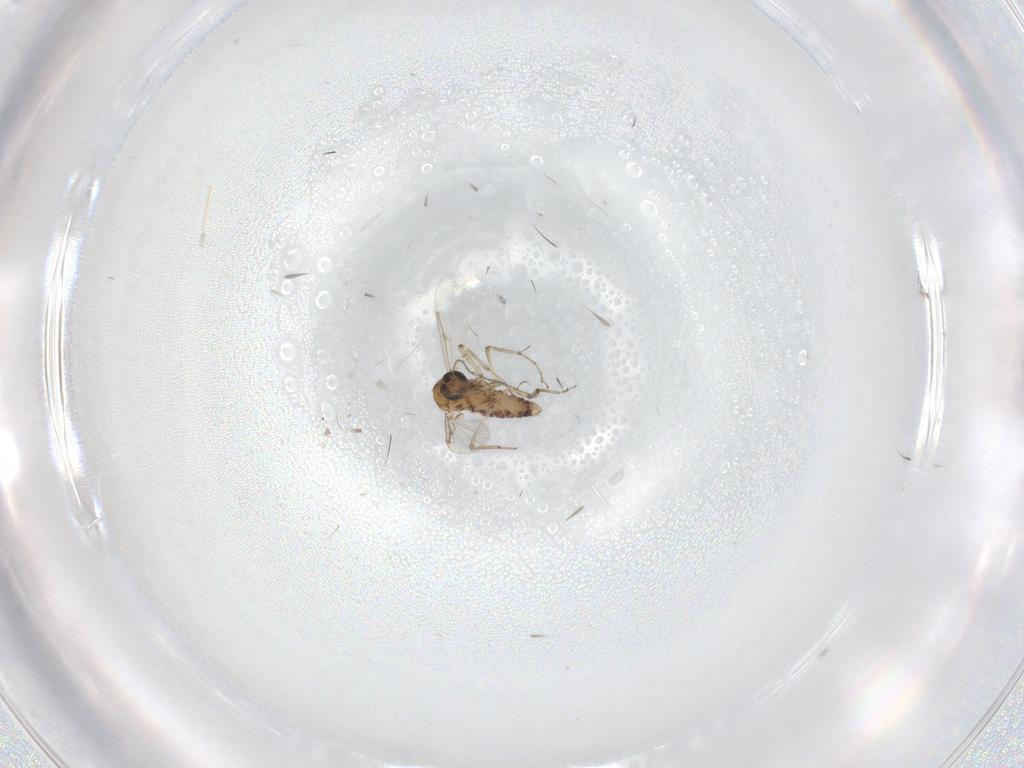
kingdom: Animalia
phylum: Arthropoda
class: Insecta
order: Diptera
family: Ceratopogonidae
